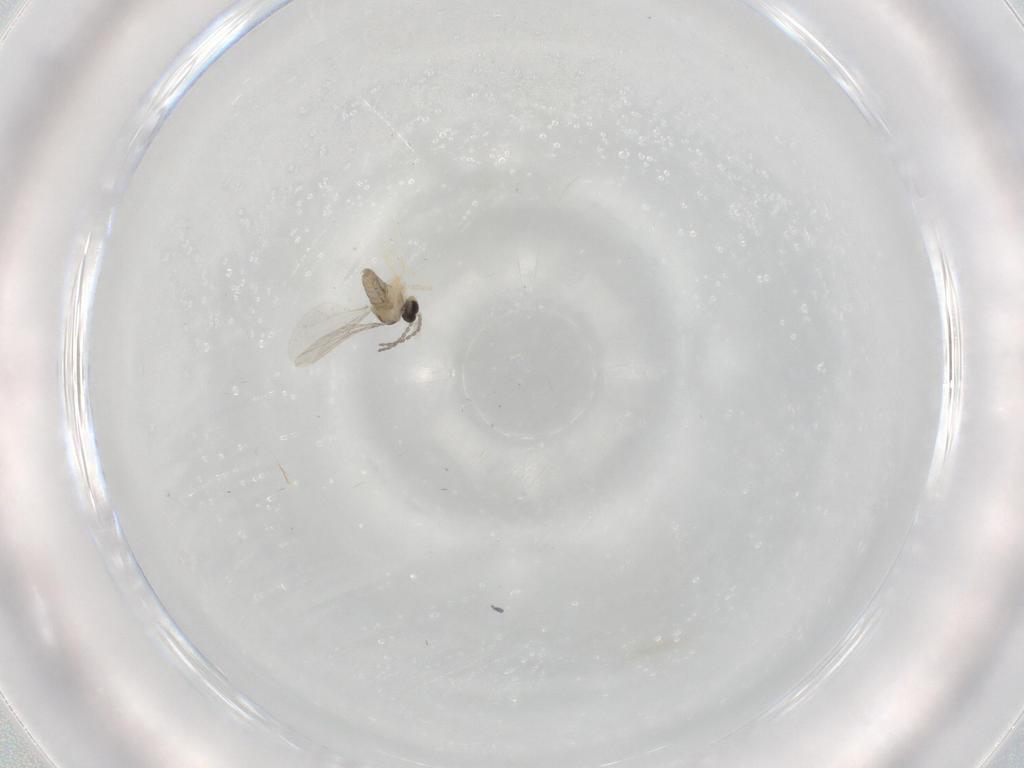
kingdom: Animalia
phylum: Arthropoda
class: Insecta
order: Diptera
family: Cecidomyiidae
